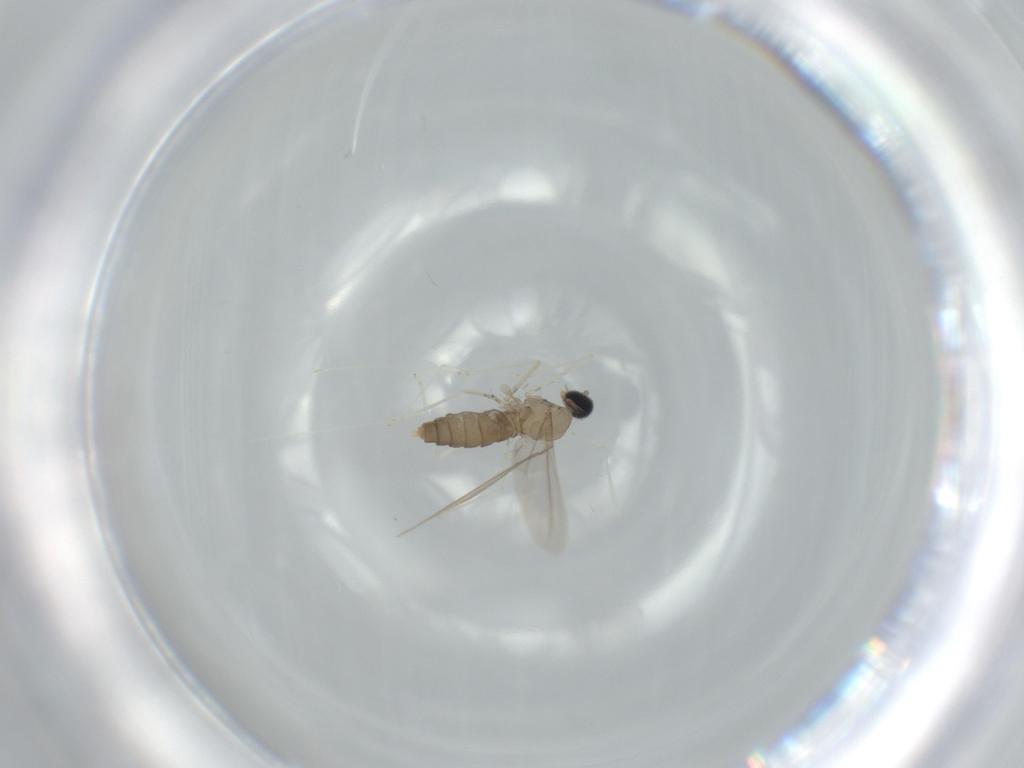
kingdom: Animalia
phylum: Arthropoda
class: Insecta
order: Diptera
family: Cecidomyiidae
